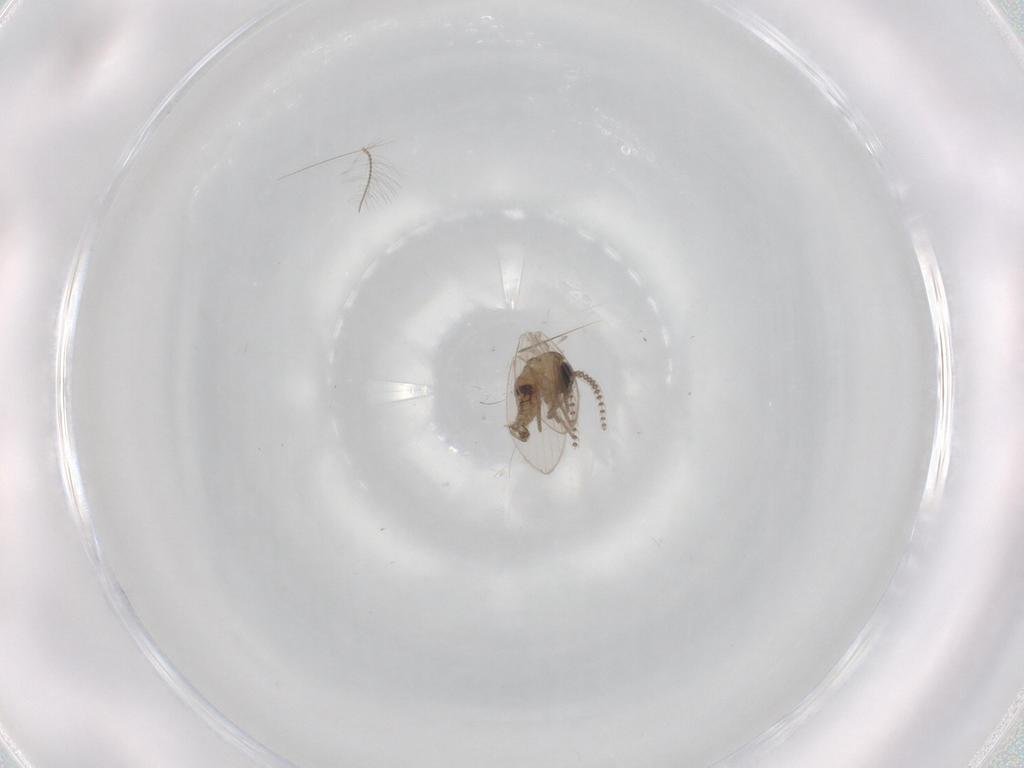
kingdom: Animalia
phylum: Arthropoda
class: Insecta
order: Diptera
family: Psychodidae
